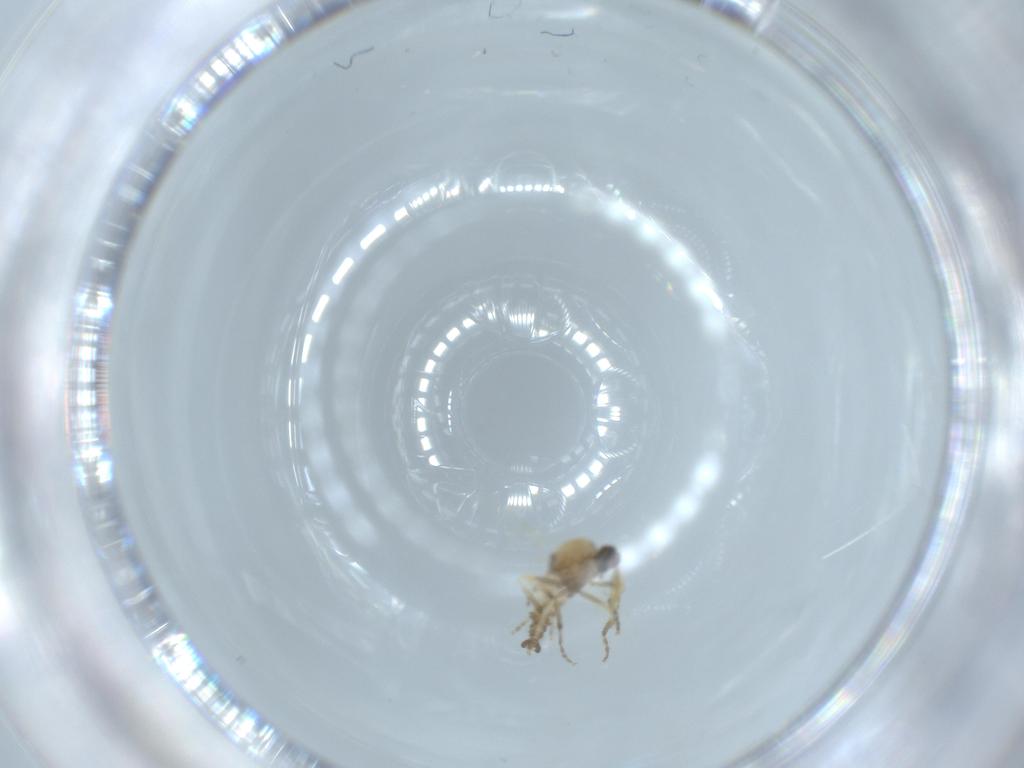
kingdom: Animalia
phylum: Arthropoda
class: Insecta
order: Diptera
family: Ceratopogonidae
